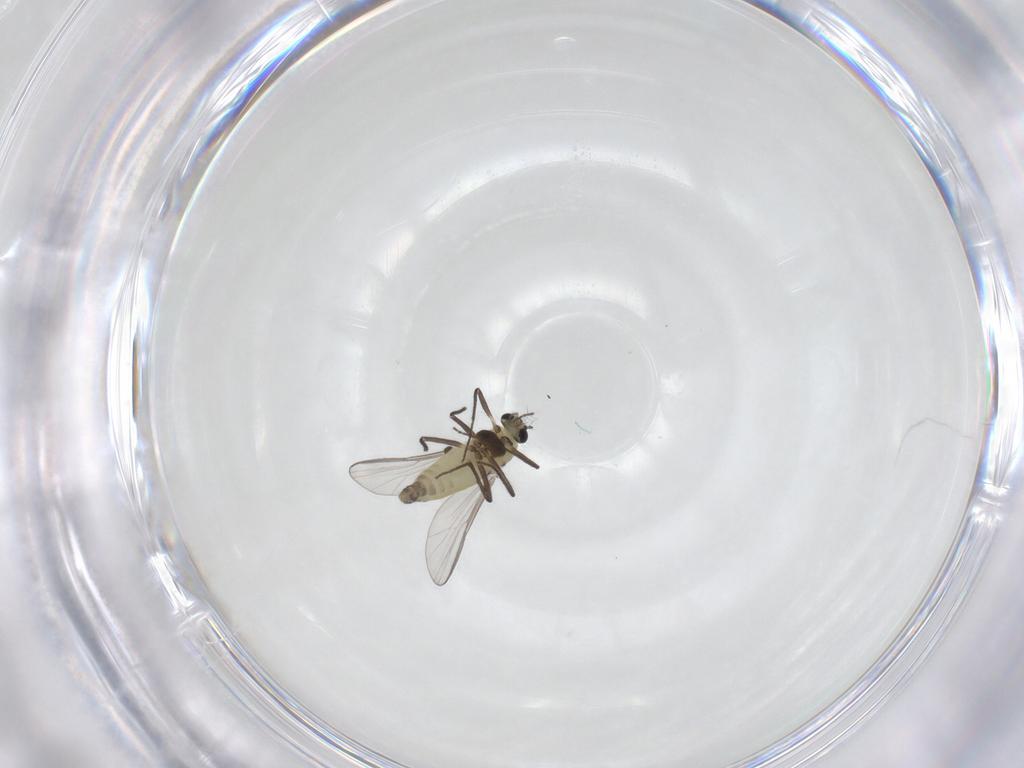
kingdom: Animalia
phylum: Arthropoda
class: Insecta
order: Diptera
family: Chironomidae
